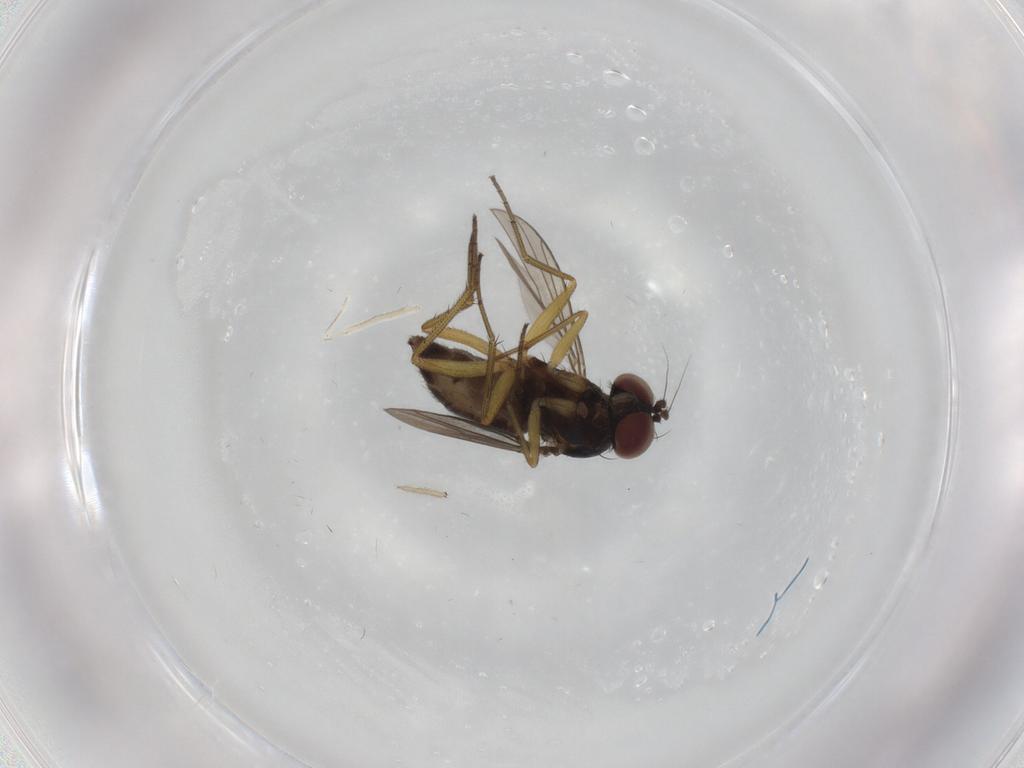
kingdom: Animalia
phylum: Arthropoda
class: Insecta
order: Diptera
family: Dolichopodidae
